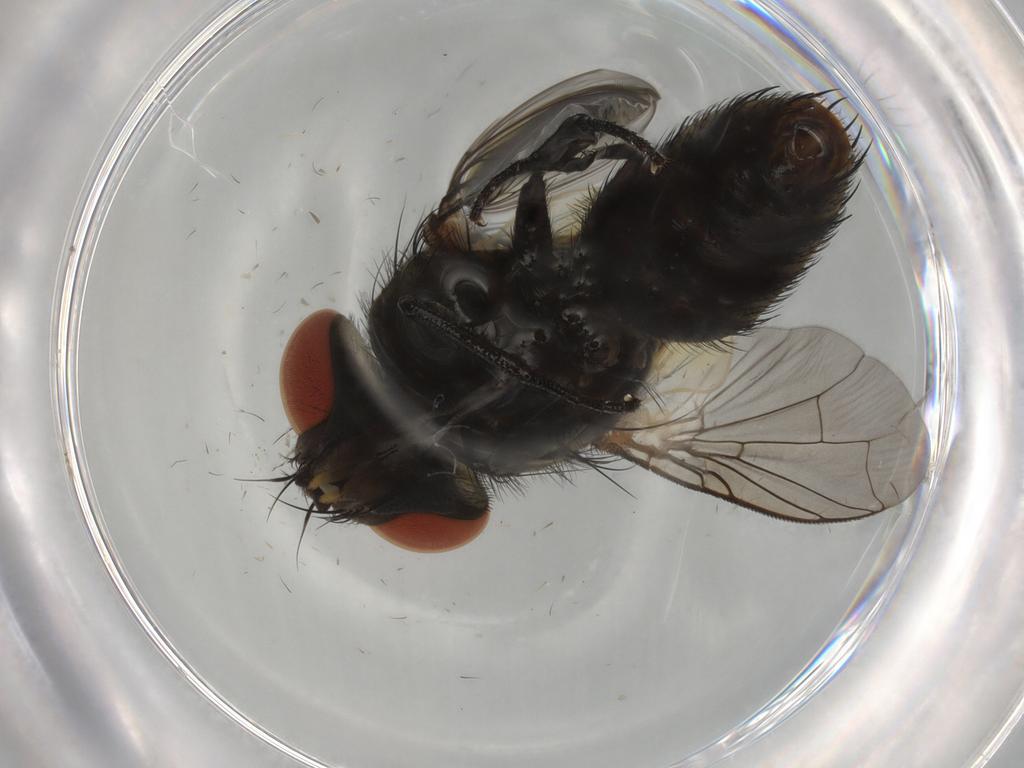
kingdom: Animalia
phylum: Arthropoda
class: Insecta
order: Diptera
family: Sarcophagidae
